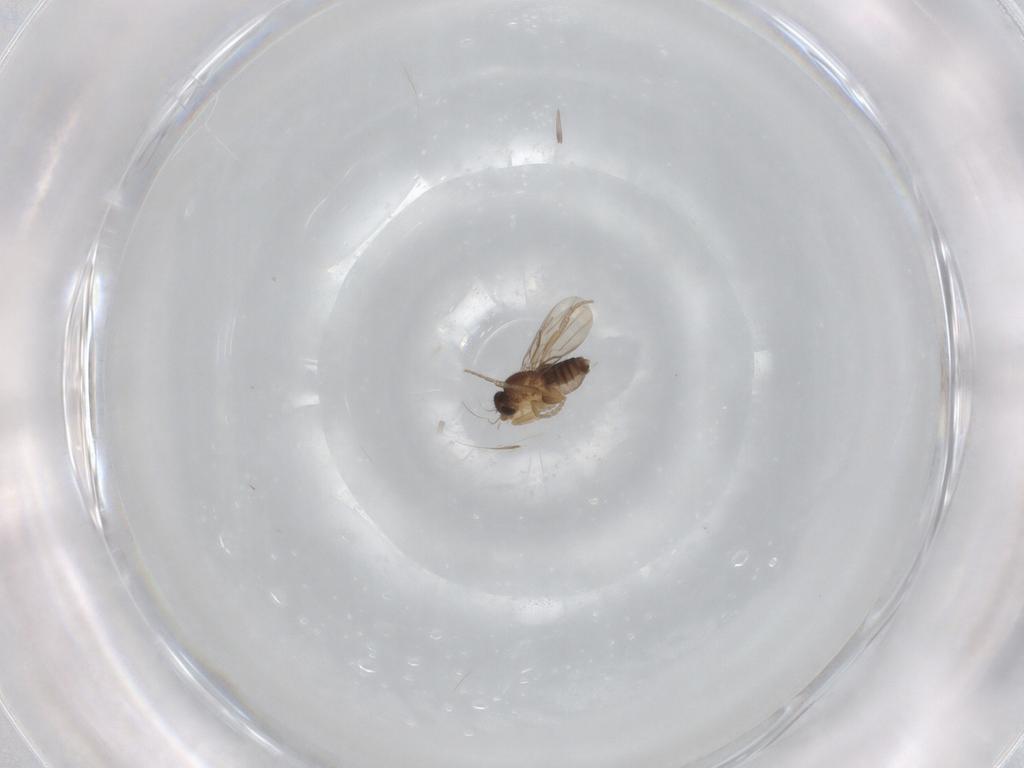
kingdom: Animalia
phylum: Arthropoda
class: Insecta
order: Diptera
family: Phoridae
